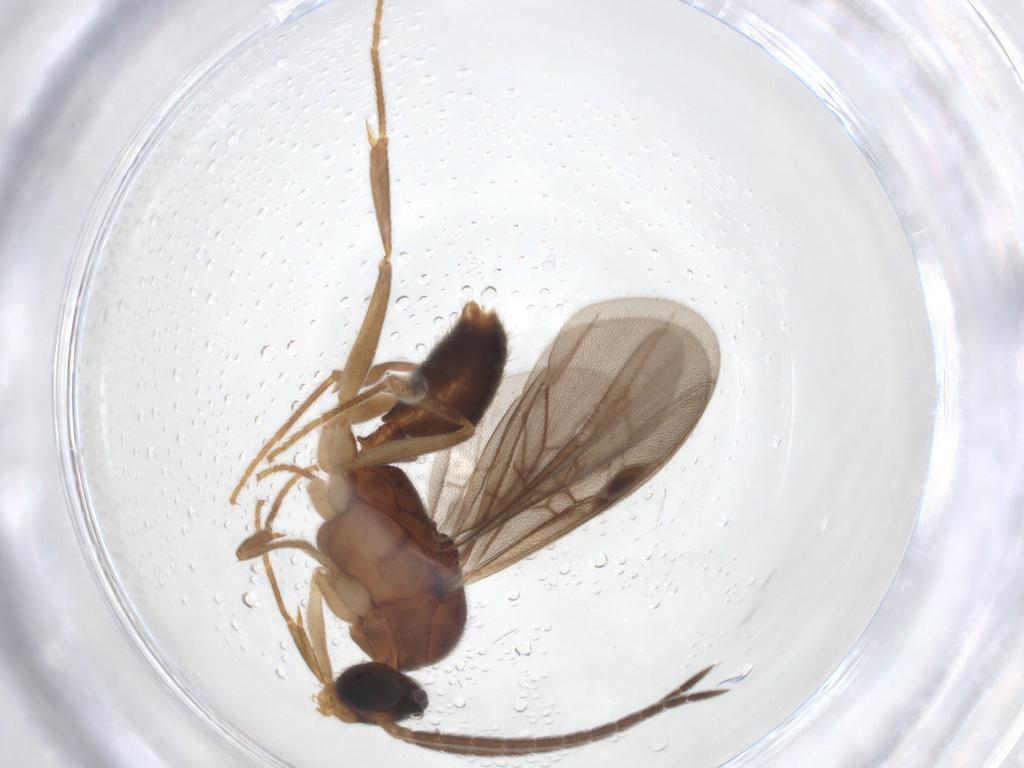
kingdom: Animalia
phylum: Arthropoda
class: Insecta
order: Hymenoptera
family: Formicidae
